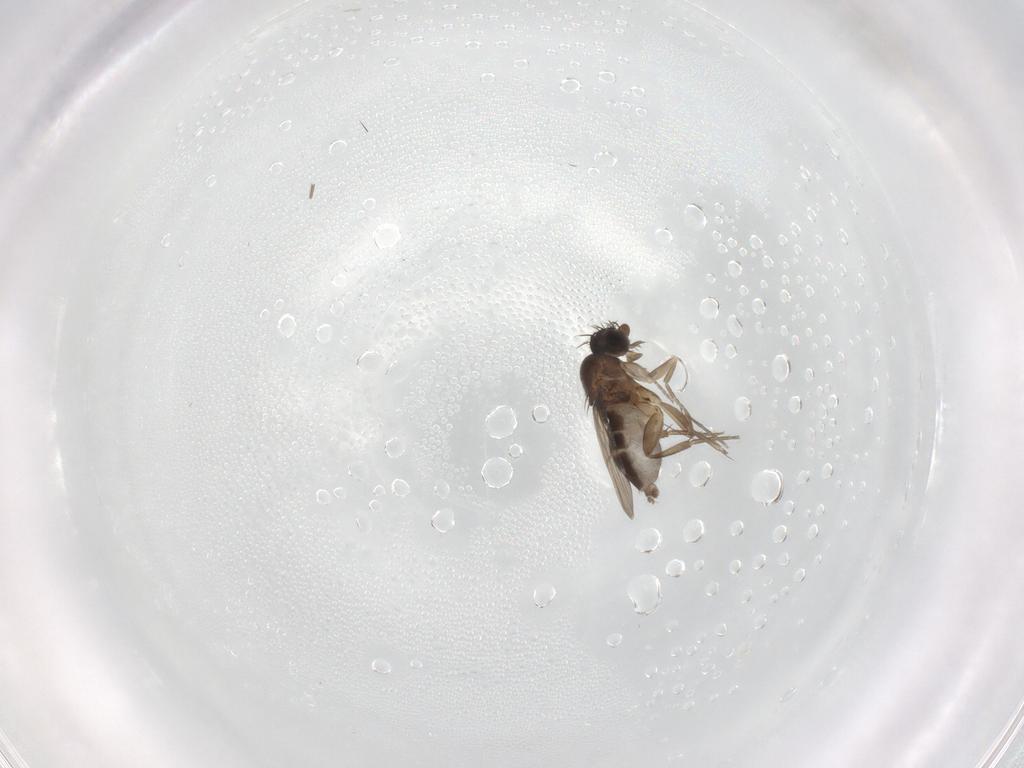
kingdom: Animalia
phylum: Arthropoda
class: Insecta
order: Diptera
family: Phoridae
